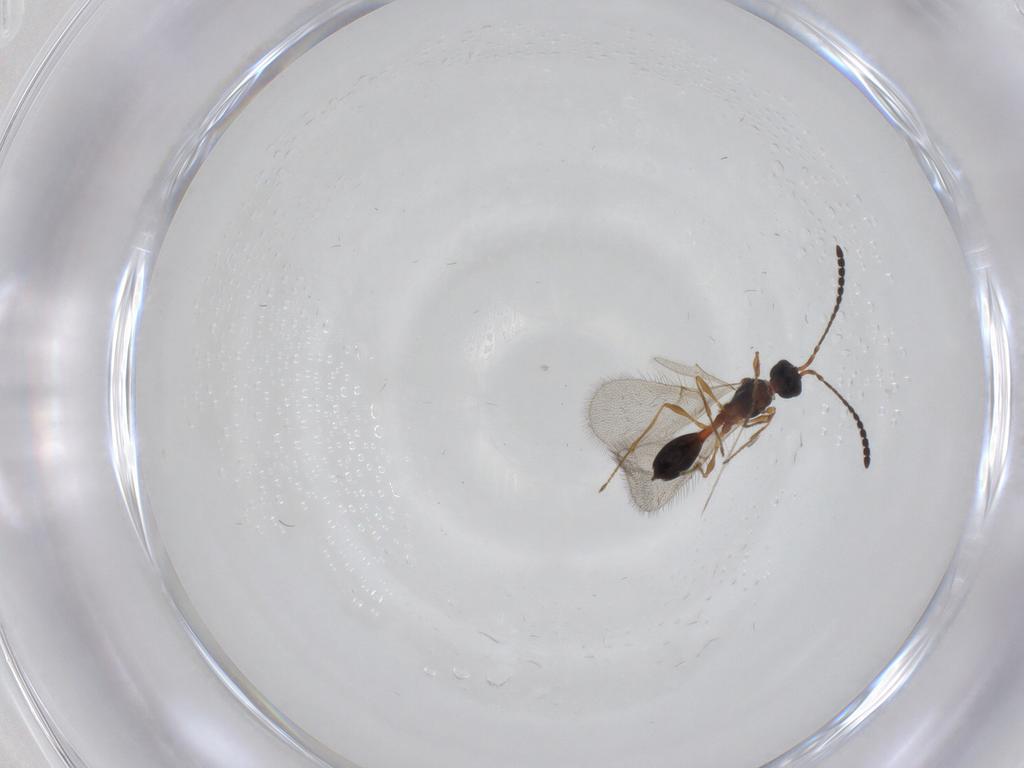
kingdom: Animalia
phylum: Arthropoda
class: Insecta
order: Hymenoptera
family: Diapriidae
